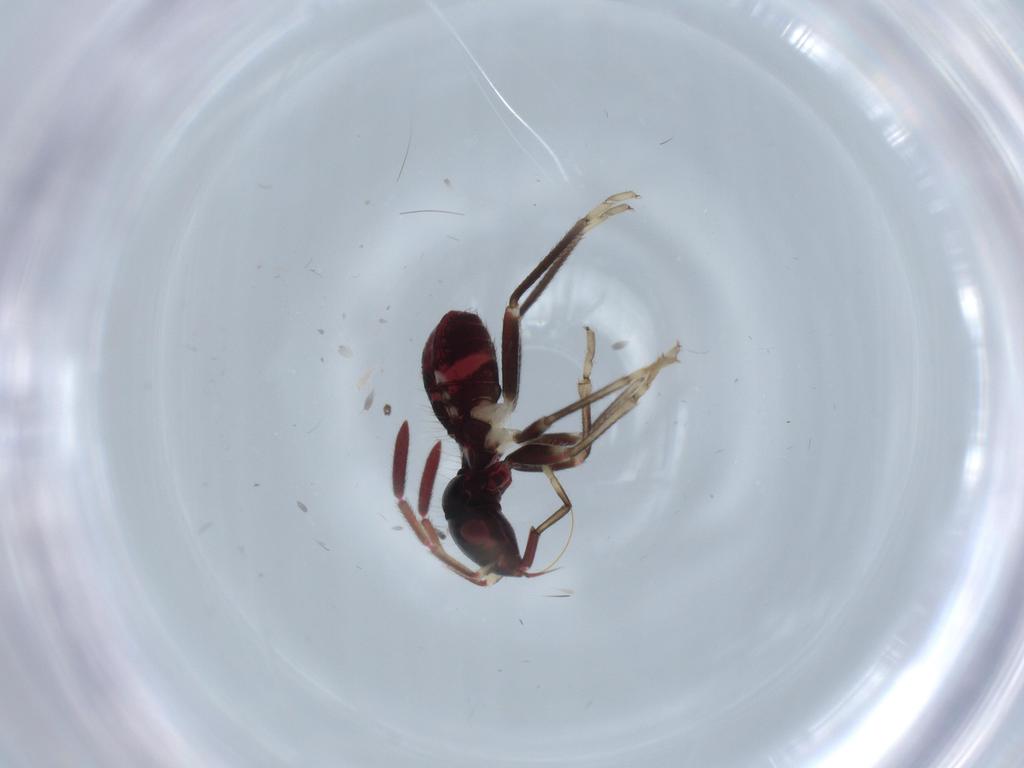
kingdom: Animalia
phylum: Arthropoda
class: Insecta
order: Hemiptera
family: Rhyparochromidae
